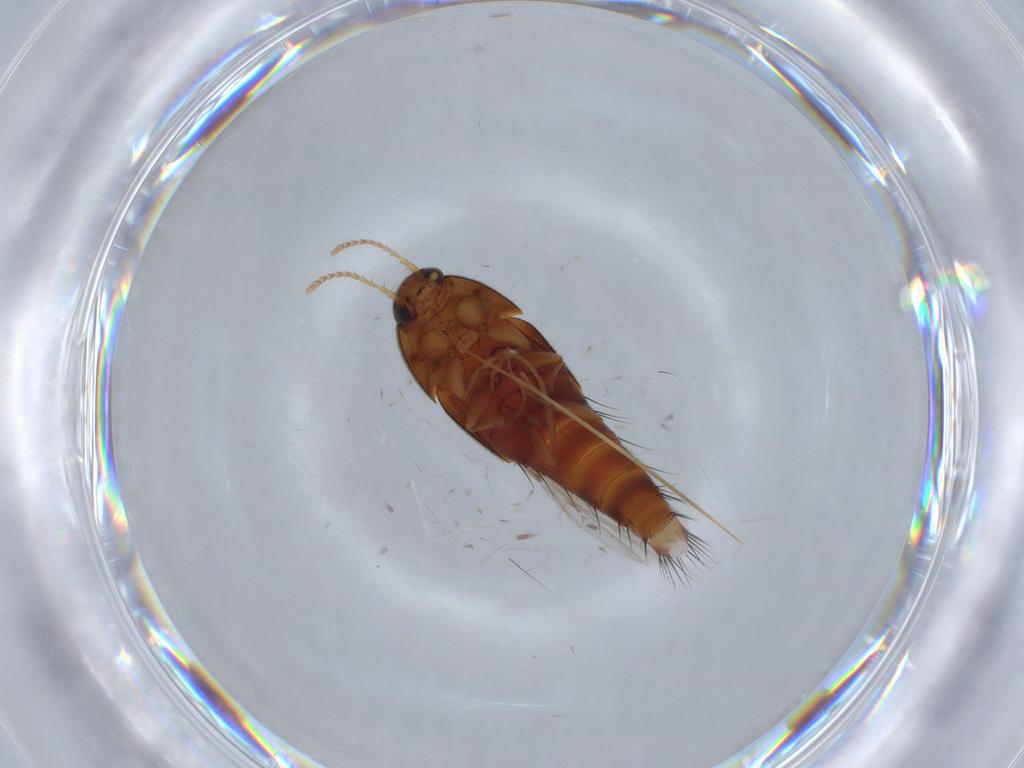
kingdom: Animalia
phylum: Arthropoda
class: Insecta
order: Coleoptera
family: Staphylinidae
